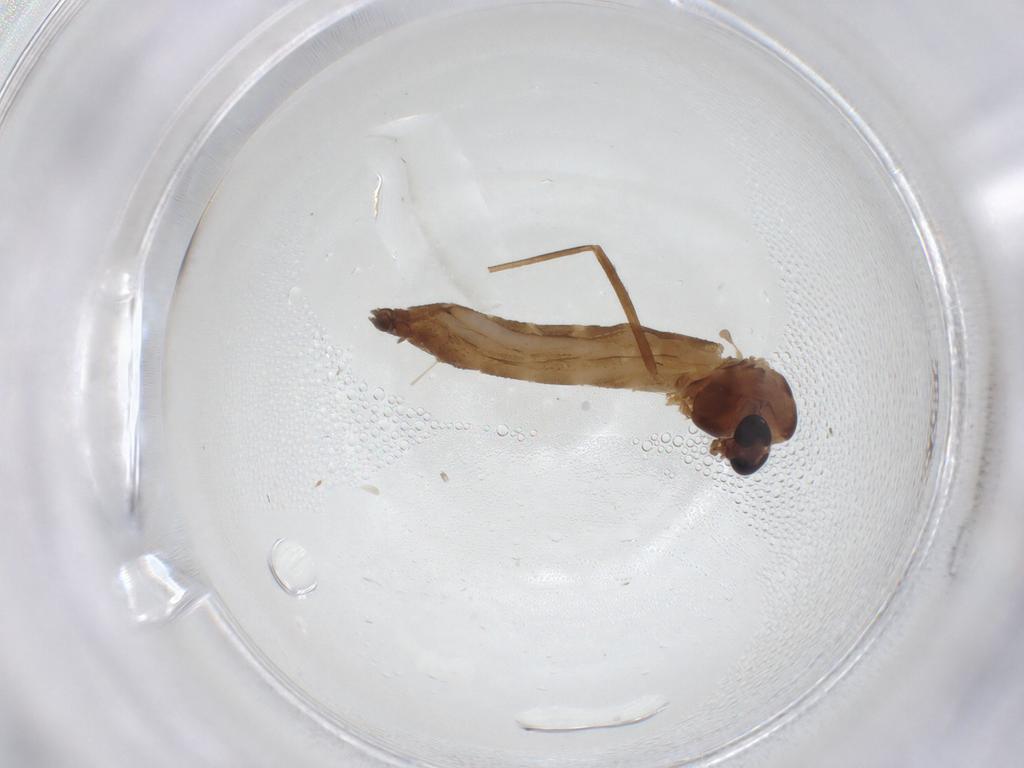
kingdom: Animalia
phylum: Arthropoda
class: Insecta
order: Diptera
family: Chironomidae
